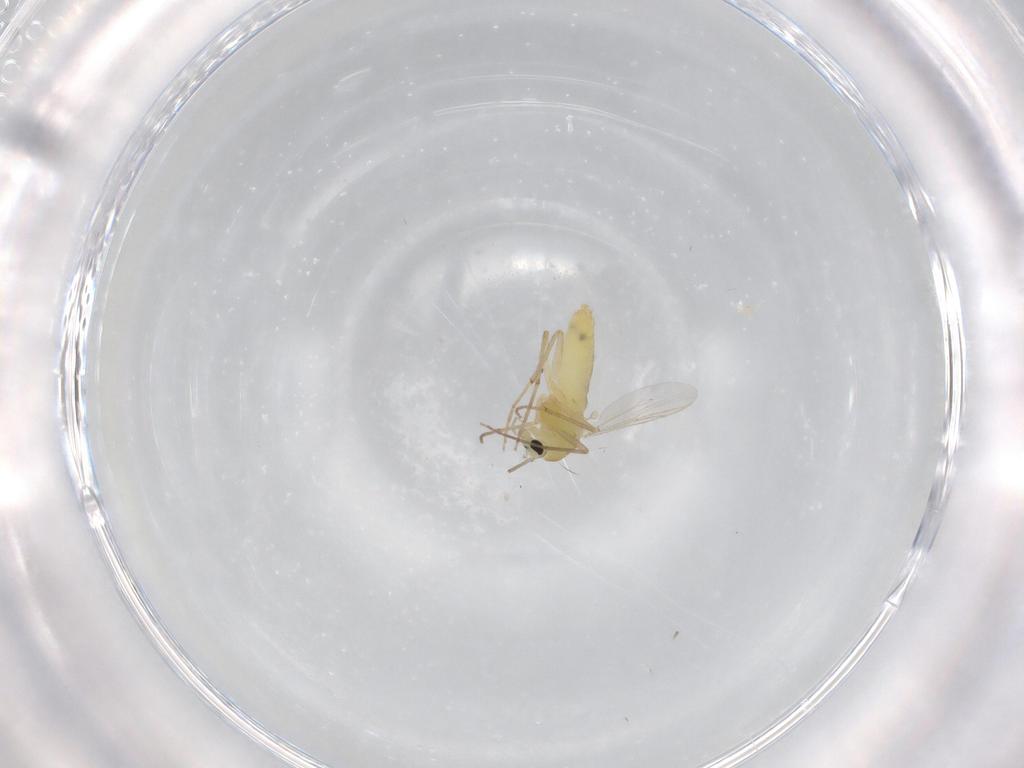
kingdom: Animalia
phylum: Arthropoda
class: Insecta
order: Diptera
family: Chironomidae
